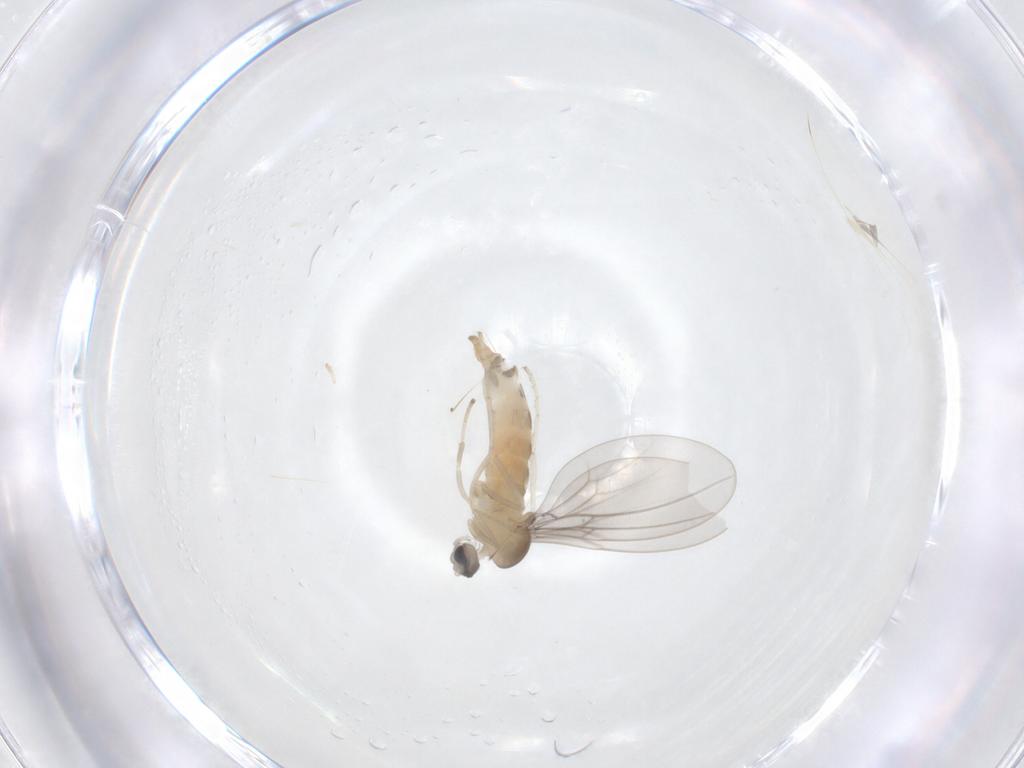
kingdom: Animalia
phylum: Arthropoda
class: Insecta
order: Diptera
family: Cecidomyiidae
